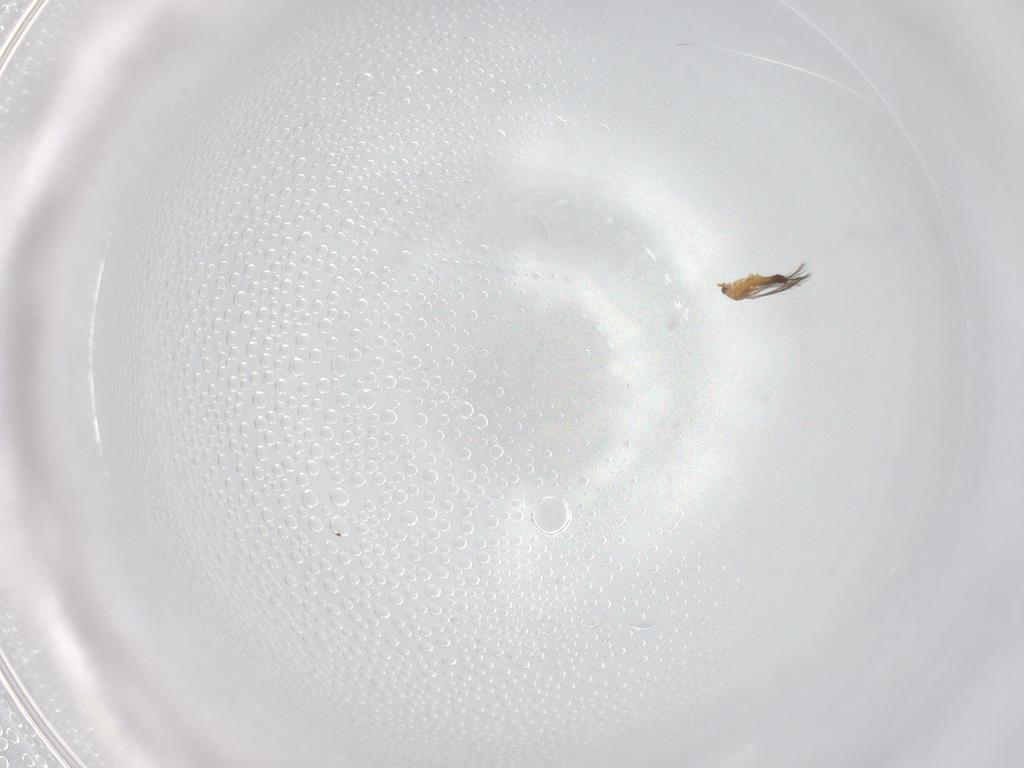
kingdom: Animalia
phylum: Arthropoda
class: Insecta
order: Thysanoptera
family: Thripidae
